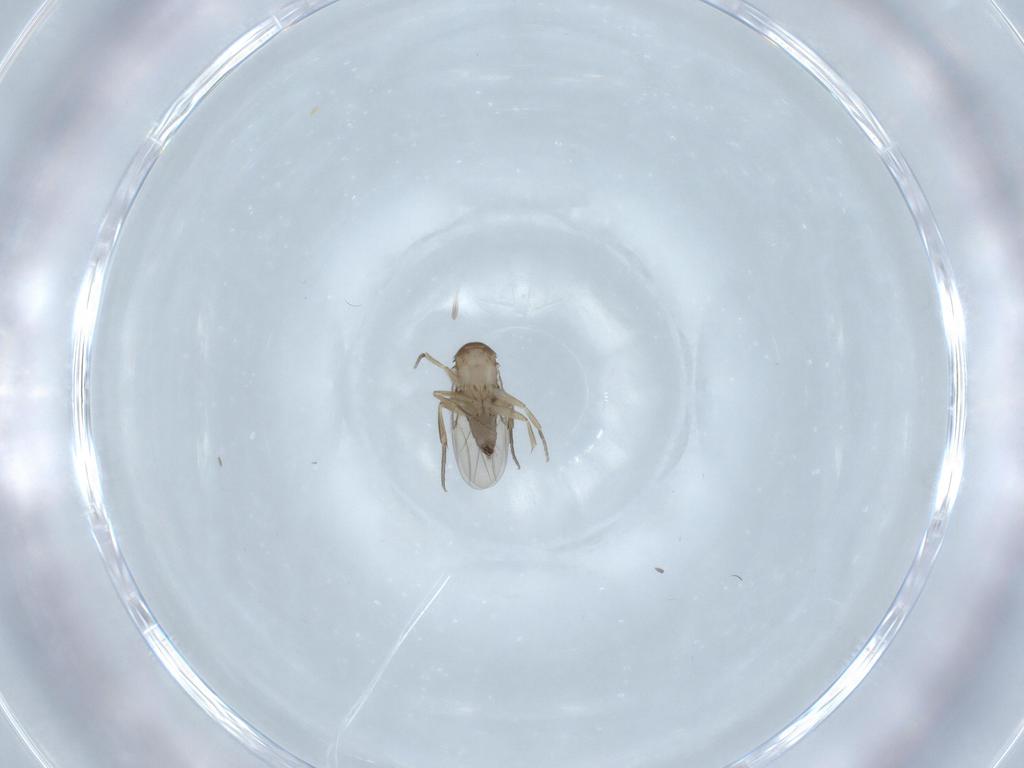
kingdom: Animalia
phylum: Arthropoda
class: Insecta
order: Diptera
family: Phoridae
